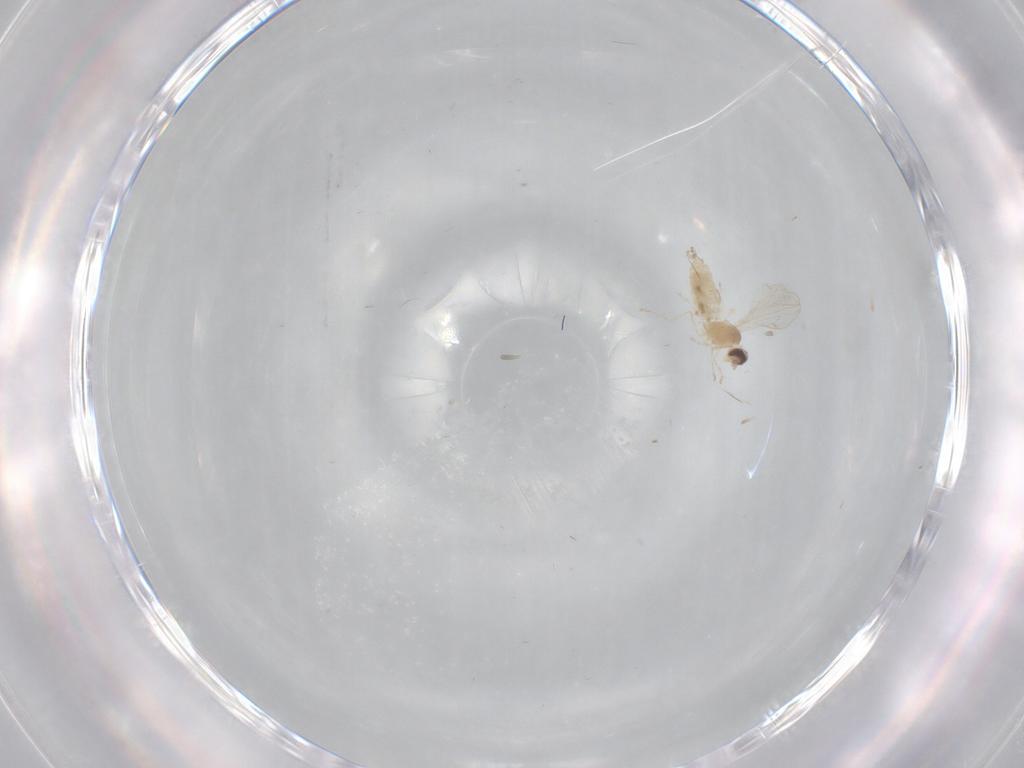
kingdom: Animalia
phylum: Arthropoda
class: Insecta
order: Diptera
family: Cecidomyiidae
